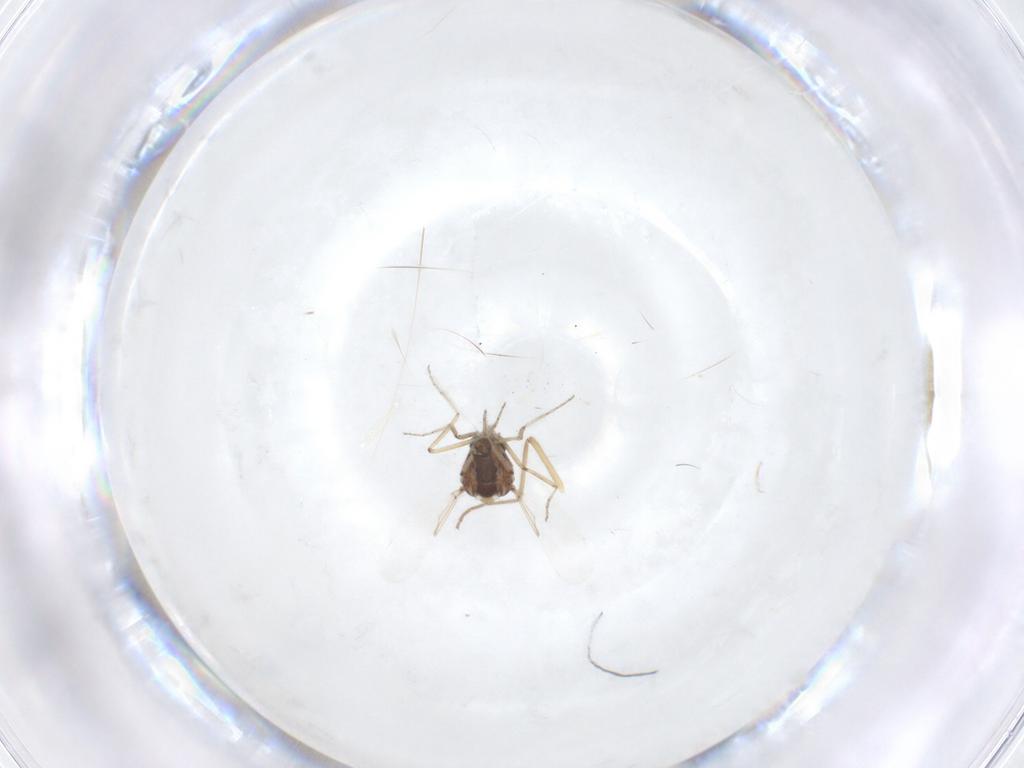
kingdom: Animalia
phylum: Arthropoda
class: Insecta
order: Diptera
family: Ceratopogonidae
